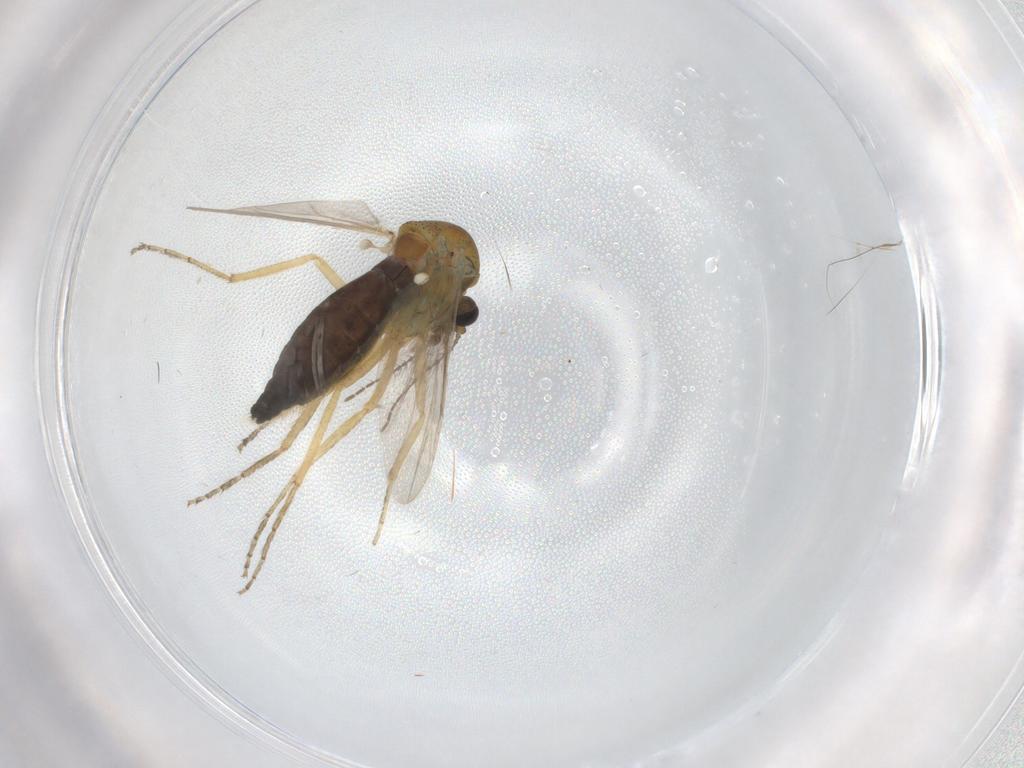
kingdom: Animalia
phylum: Arthropoda
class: Insecta
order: Diptera
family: Ceratopogonidae
